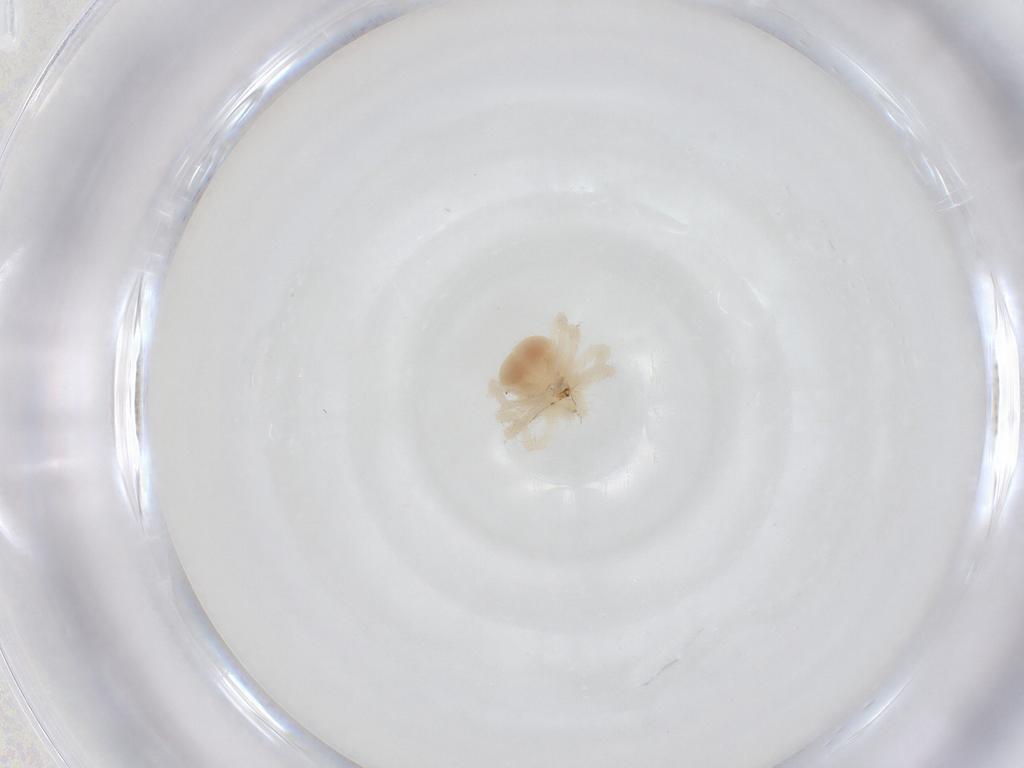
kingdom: Animalia
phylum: Arthropoda
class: Arachnida
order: Trombidiformes
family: Anystidae
